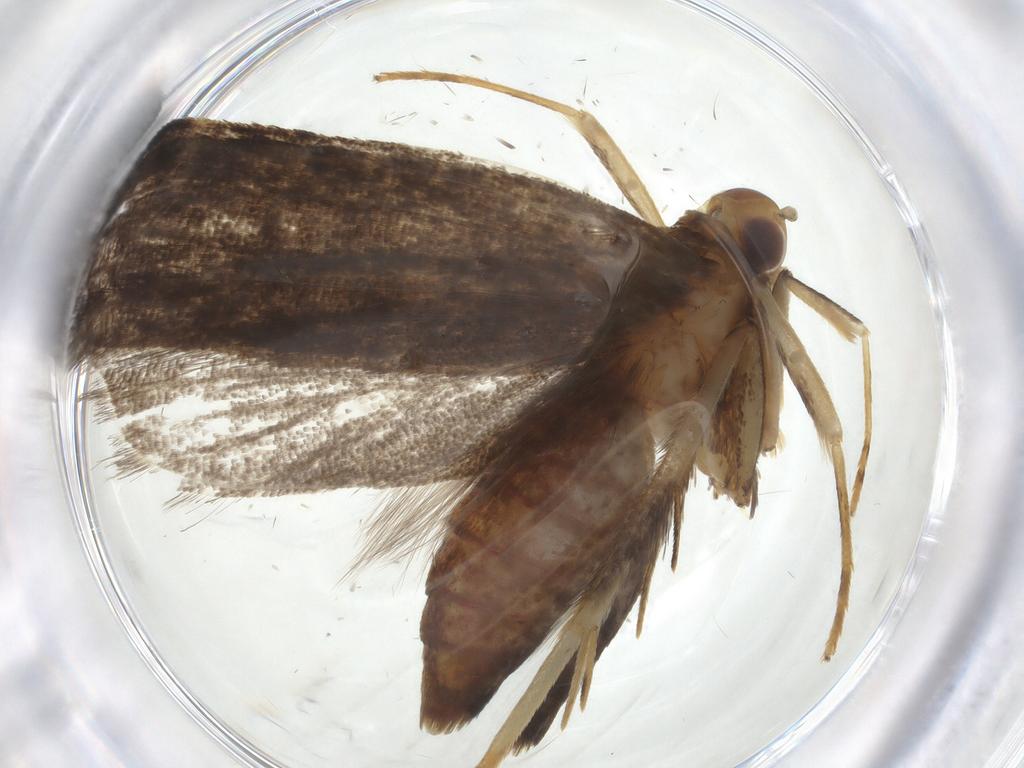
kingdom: Animalia
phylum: Arthropoda
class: Insecta
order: Lepidoptera
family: Lecithoceridae
